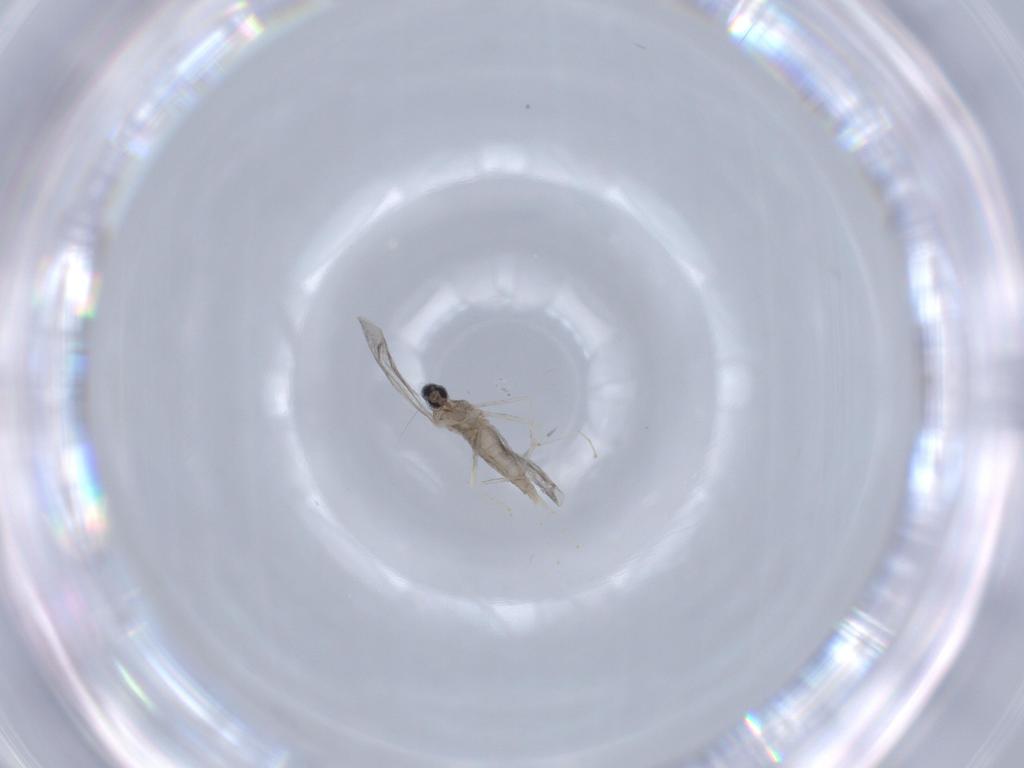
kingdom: Animalia
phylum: Arthropoda
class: Insecta
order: Diptera
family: Cecidomyiidae
